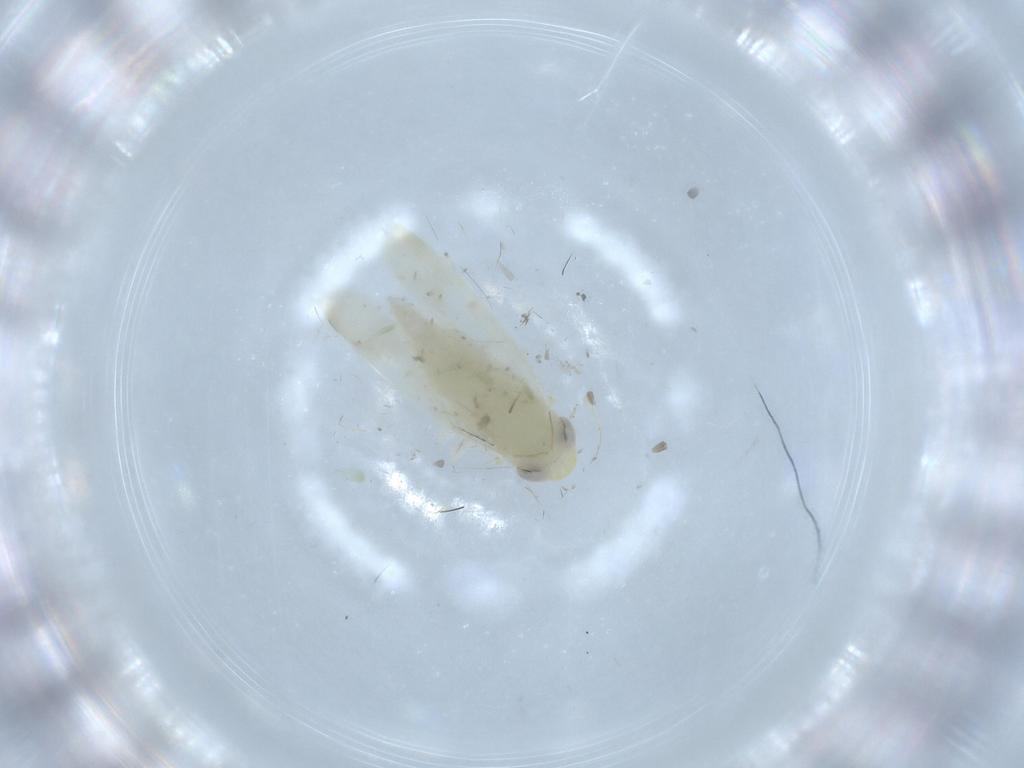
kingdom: Animalia
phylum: Arthropoda
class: Insecta
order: Hemiptera
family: Cicadellidae
